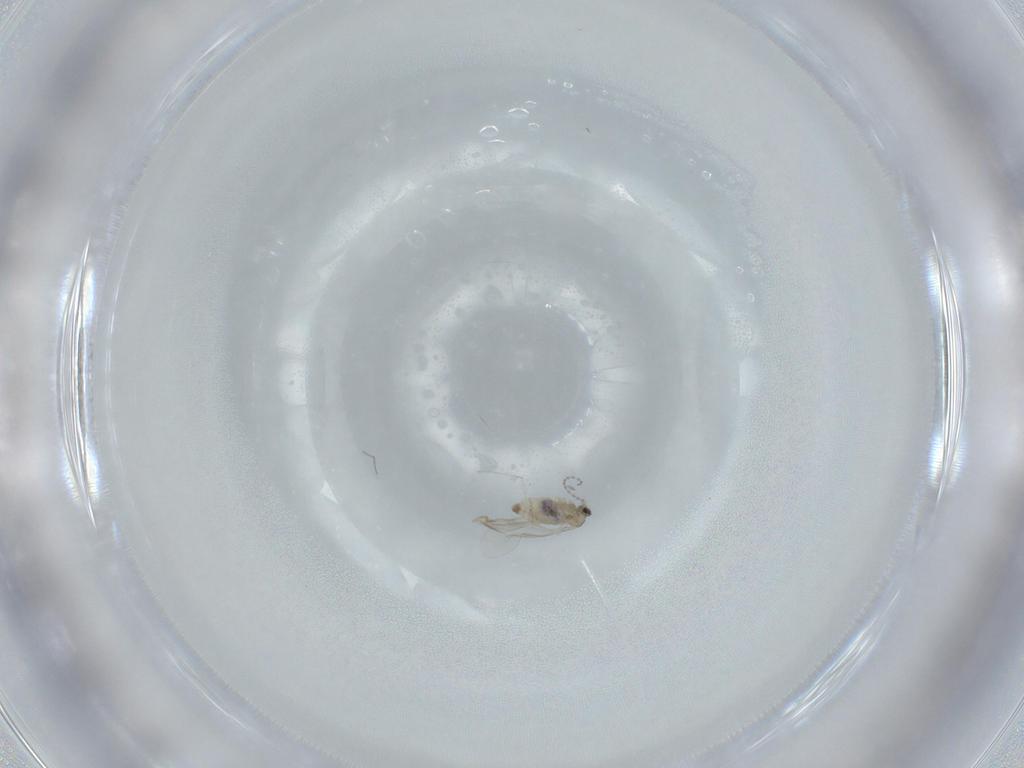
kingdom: Animalia
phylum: Arthropoda
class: Insecta
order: Diptera
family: Cecidomyiidae
